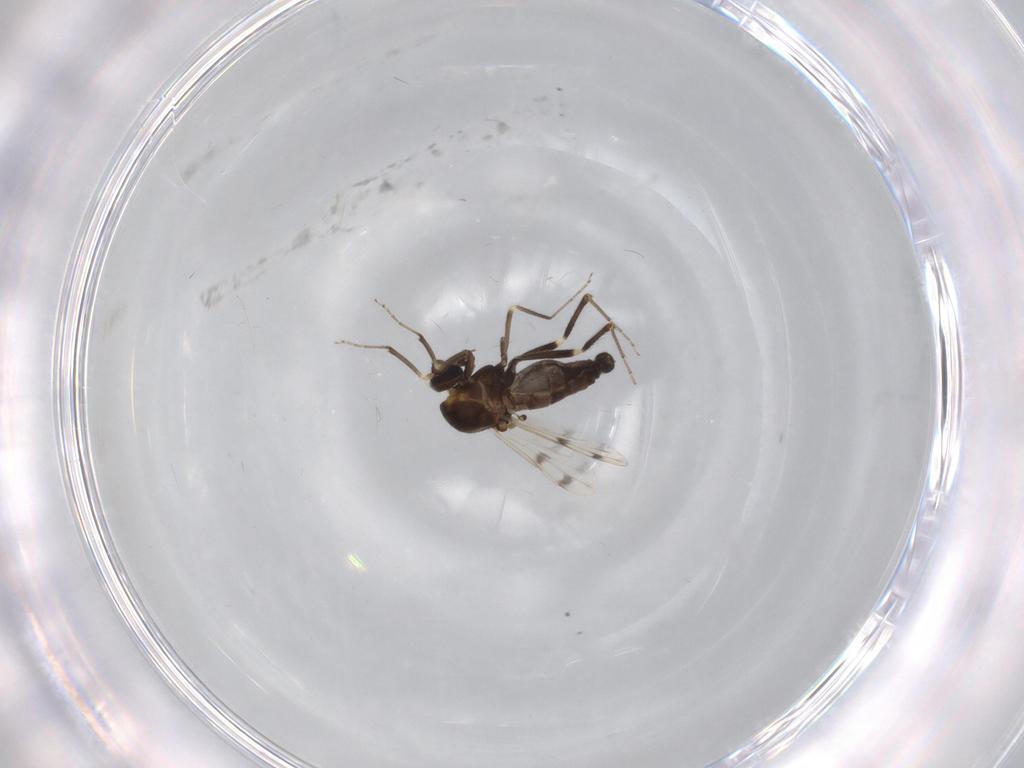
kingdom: Animalia
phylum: Arthropoda
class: Insecta
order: Diptera
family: Ceratopogonidae
